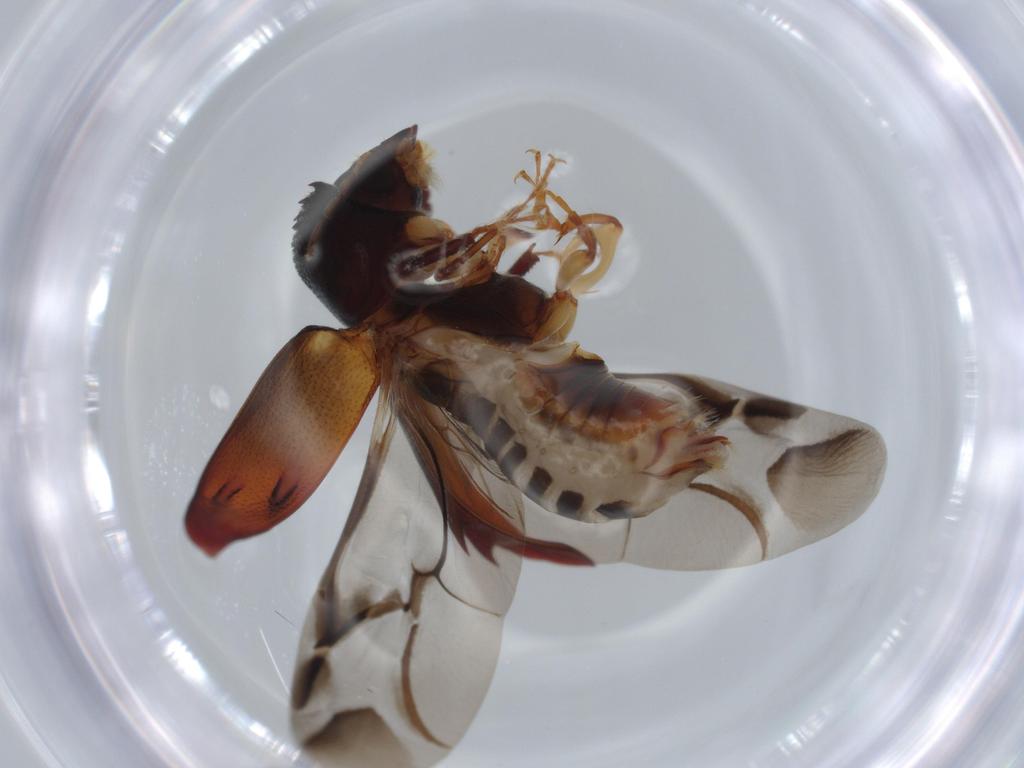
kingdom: Animalia
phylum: Arthropoda
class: Insecta
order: Coleoptera
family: Bostrichidae
